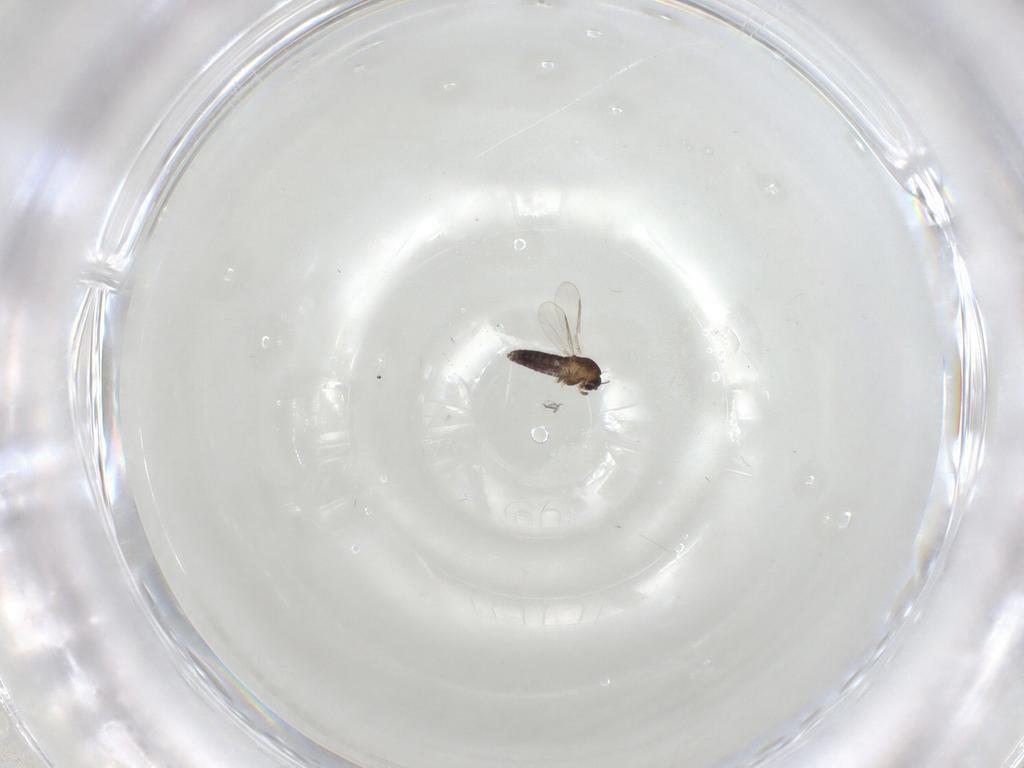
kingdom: Animalia
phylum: Arthropoda
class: Insecta
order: Diptera
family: Chironomidae
